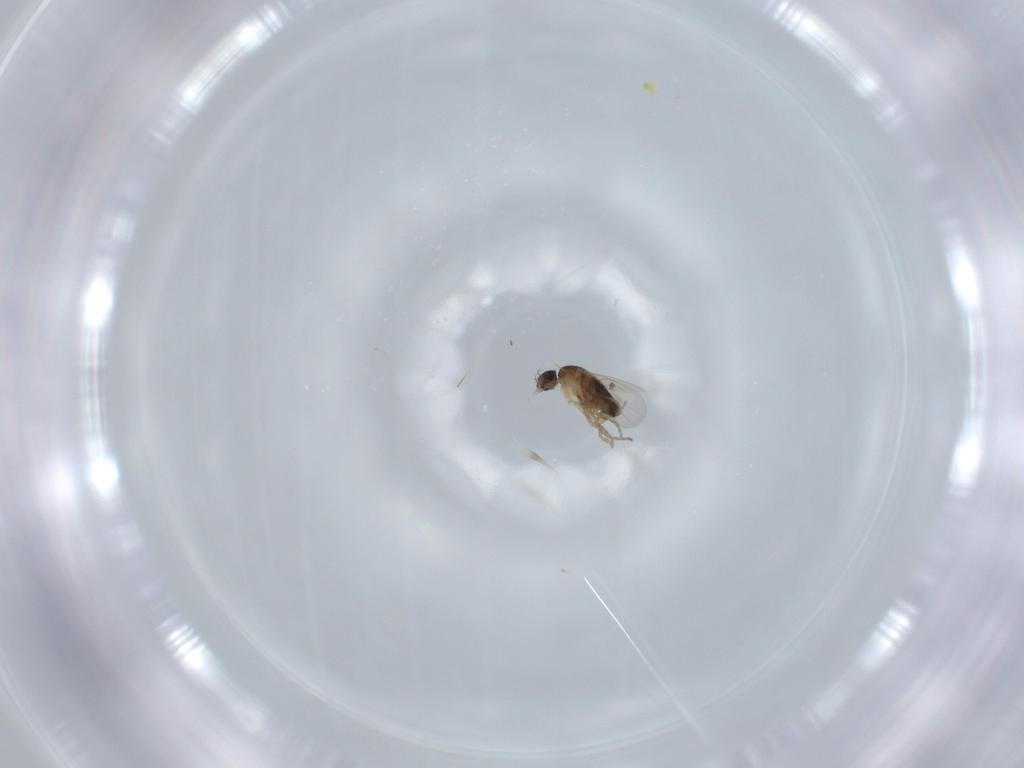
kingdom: Animalia
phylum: Arthropoda
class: Insecta
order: Diptera
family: Phoridae
